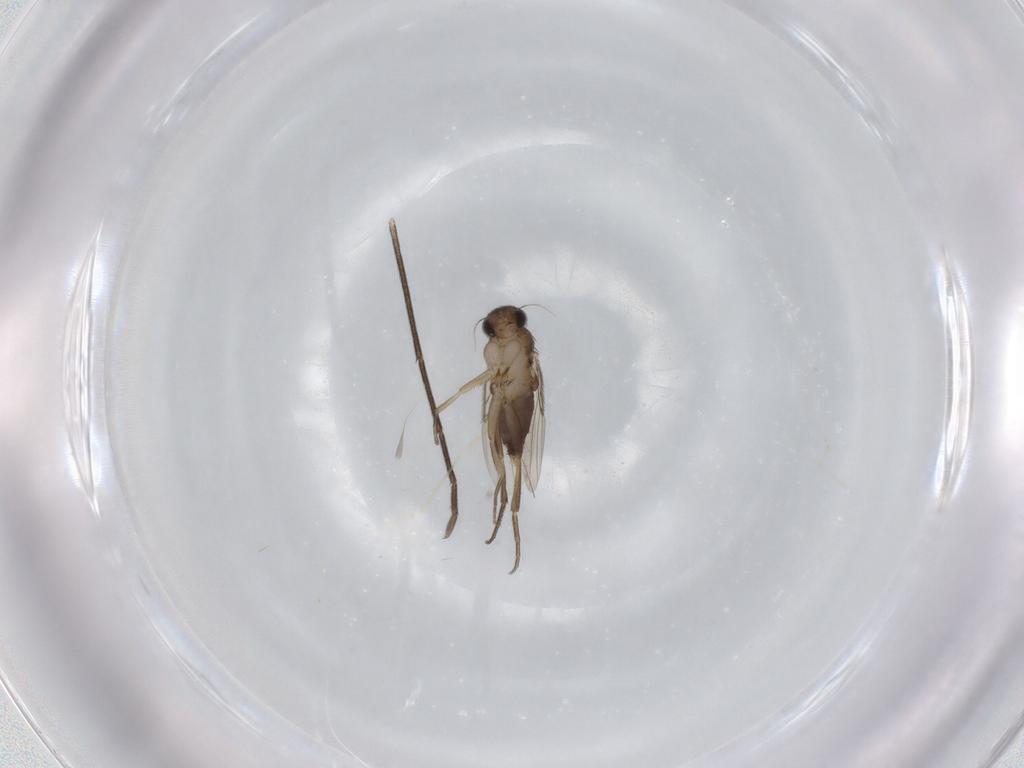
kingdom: Animalia
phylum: Arthropoda
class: Insecta
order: Diptera
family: Phoridae
